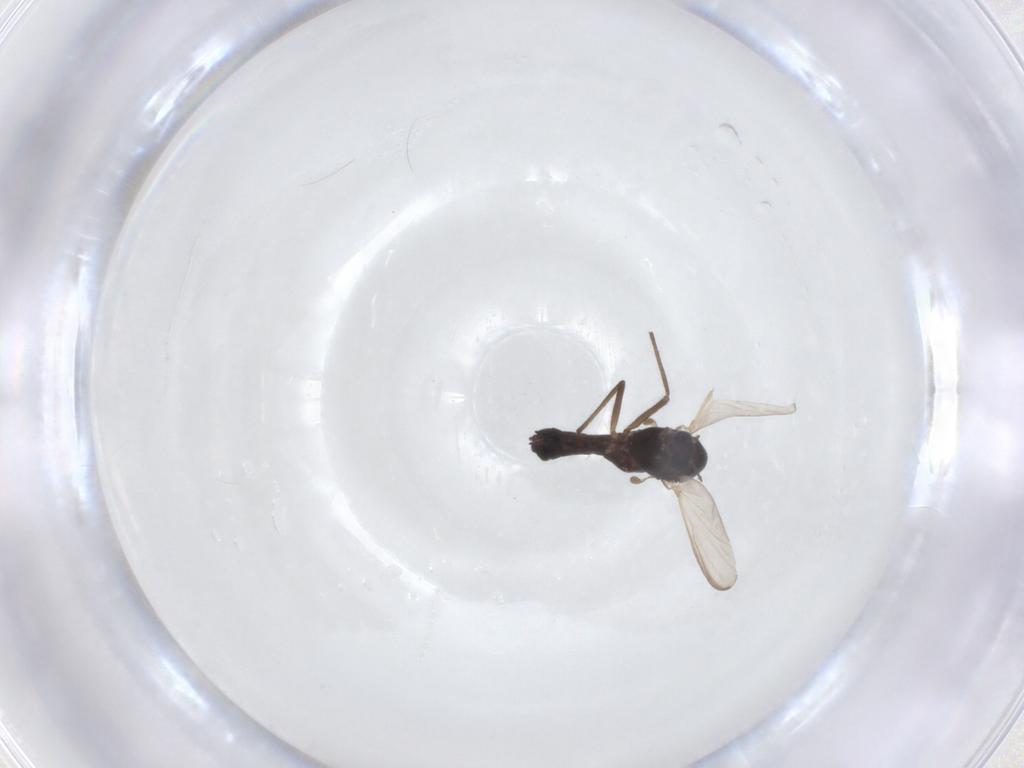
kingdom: Animalia
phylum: Arthropoda
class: Insecta
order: Diptera
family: Chironomidae
